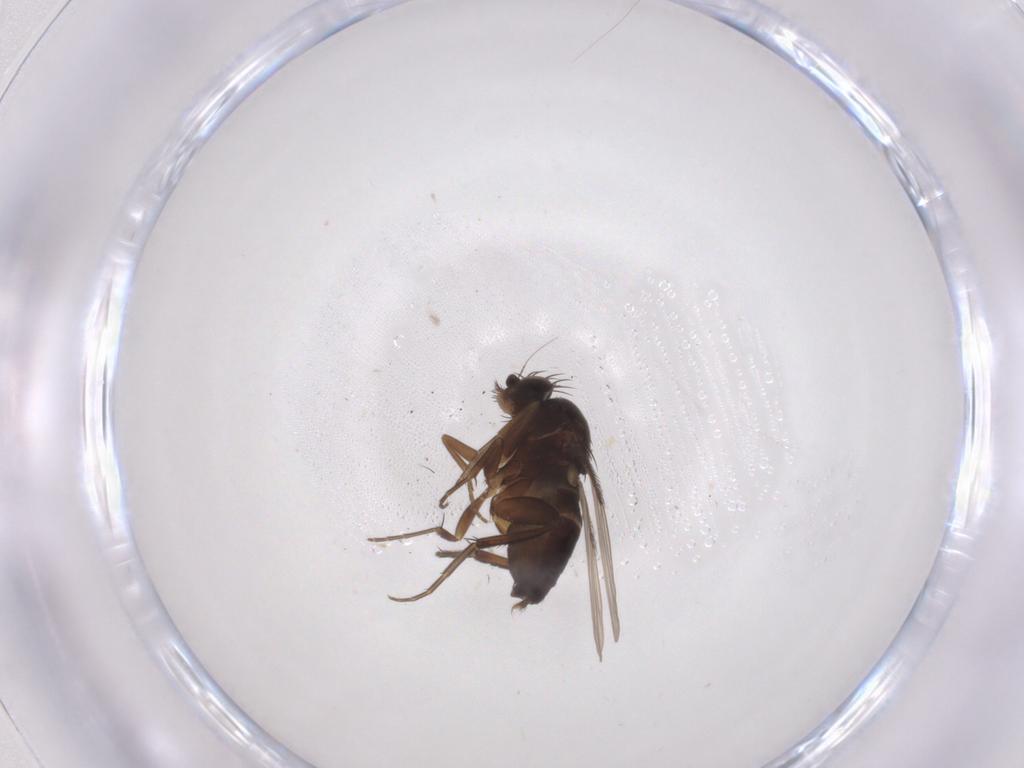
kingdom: Animalia
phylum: Arthropoda
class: Insecta
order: Diptera
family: Phoridae
